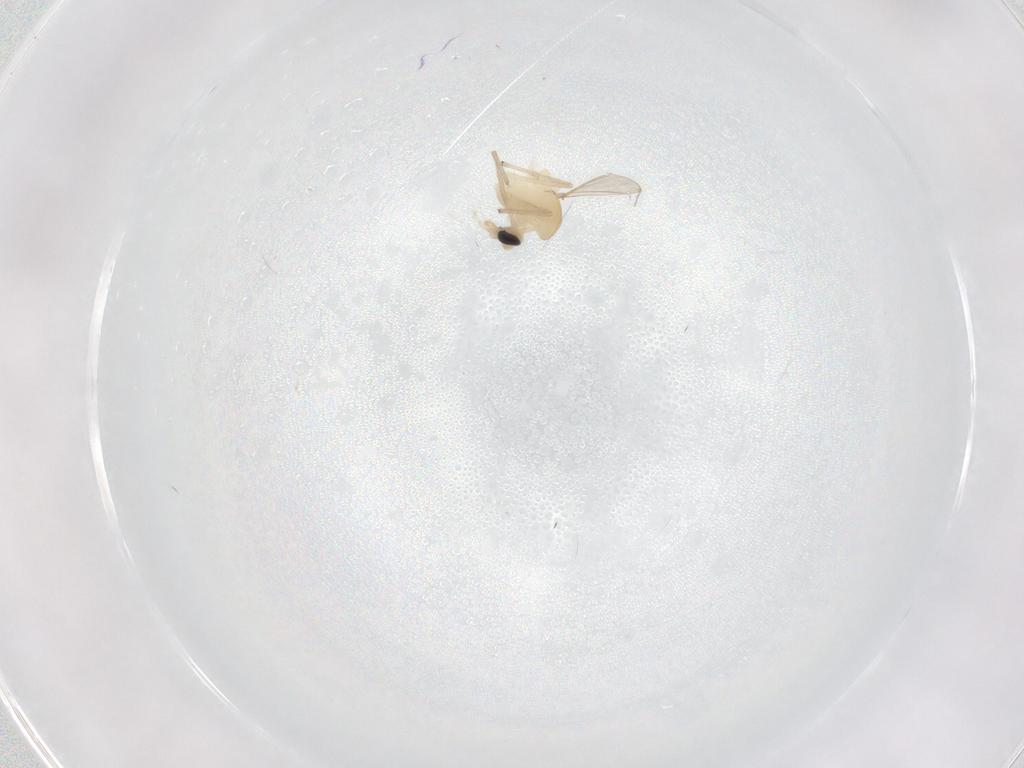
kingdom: Animalia
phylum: Arthropoda
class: Insecta
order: Diptera
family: Chironomidae
